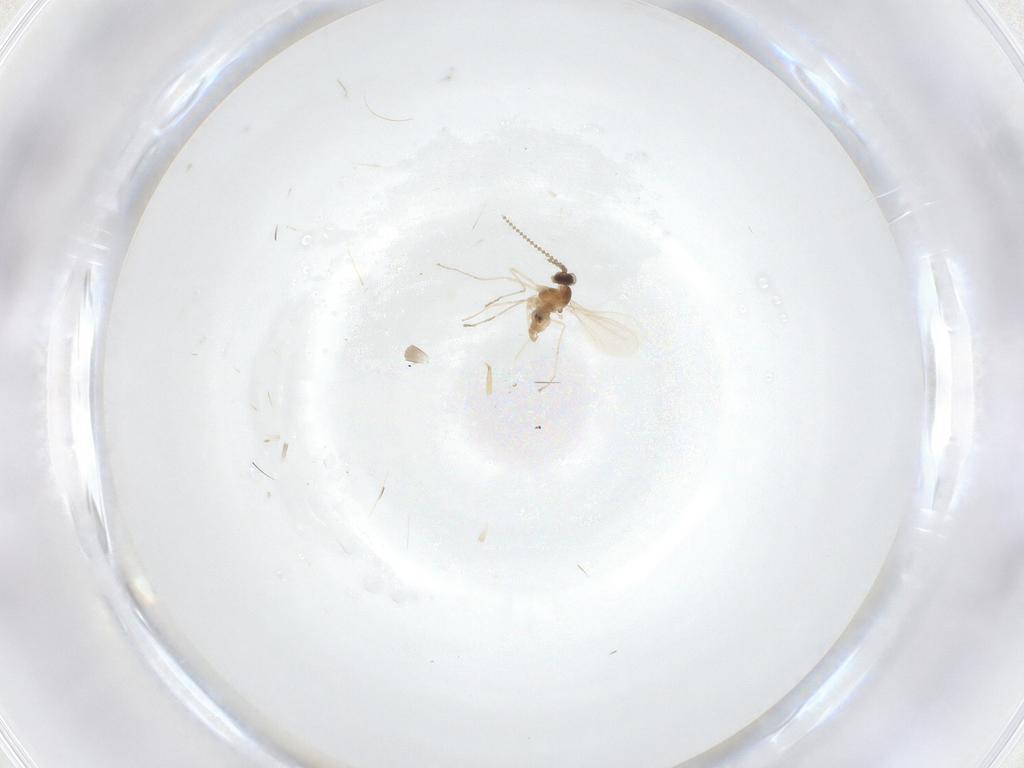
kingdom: Animalia
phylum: Arthropoda
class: Insecta
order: Diptera
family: Cecidomyiidae
